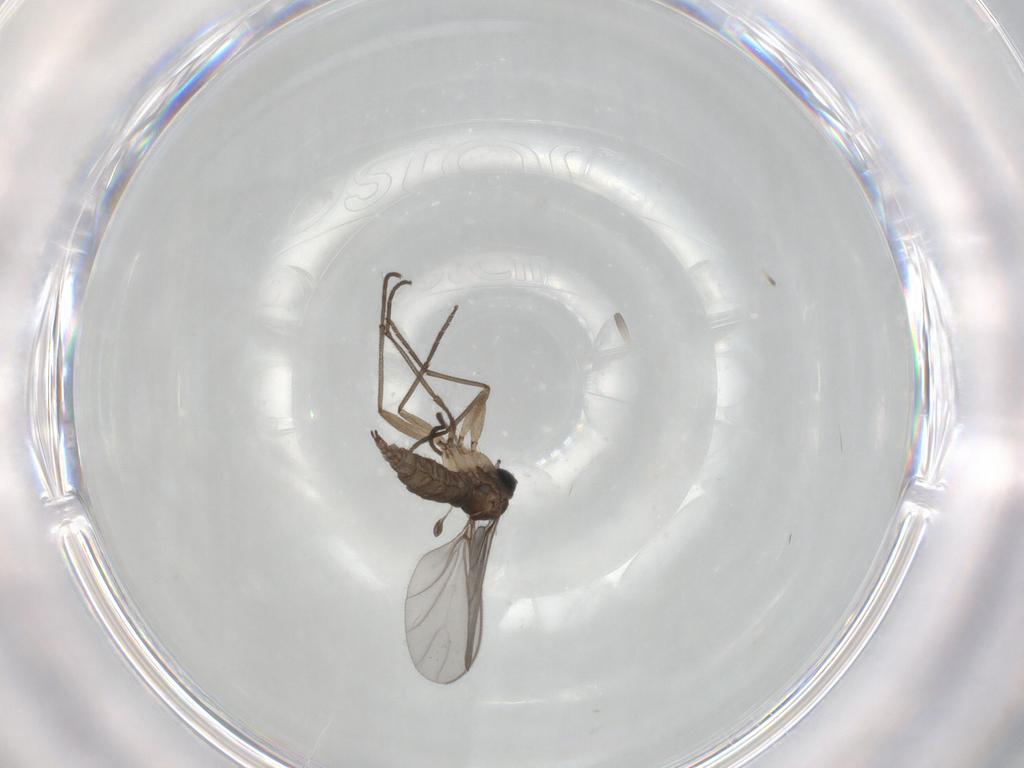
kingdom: Animalia
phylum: Arthropoda
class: Insecta
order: Diptera
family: Sciaridae
